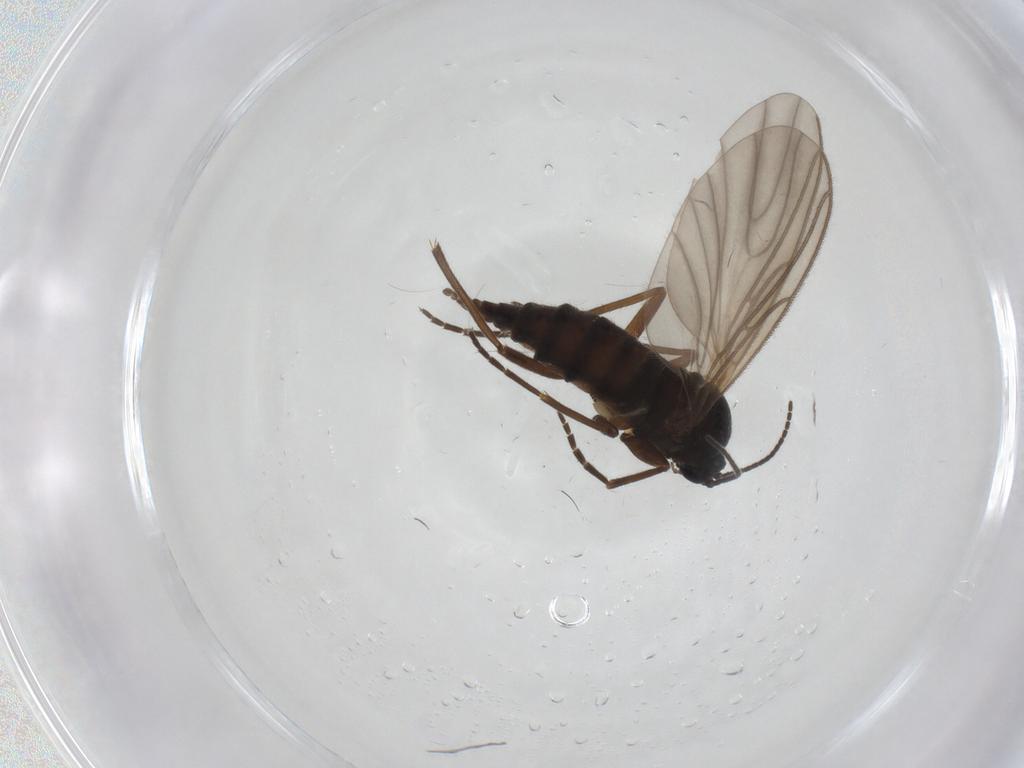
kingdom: Animalia
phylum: Arthropoda
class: Insecta
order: Diptera
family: Sciaridae
